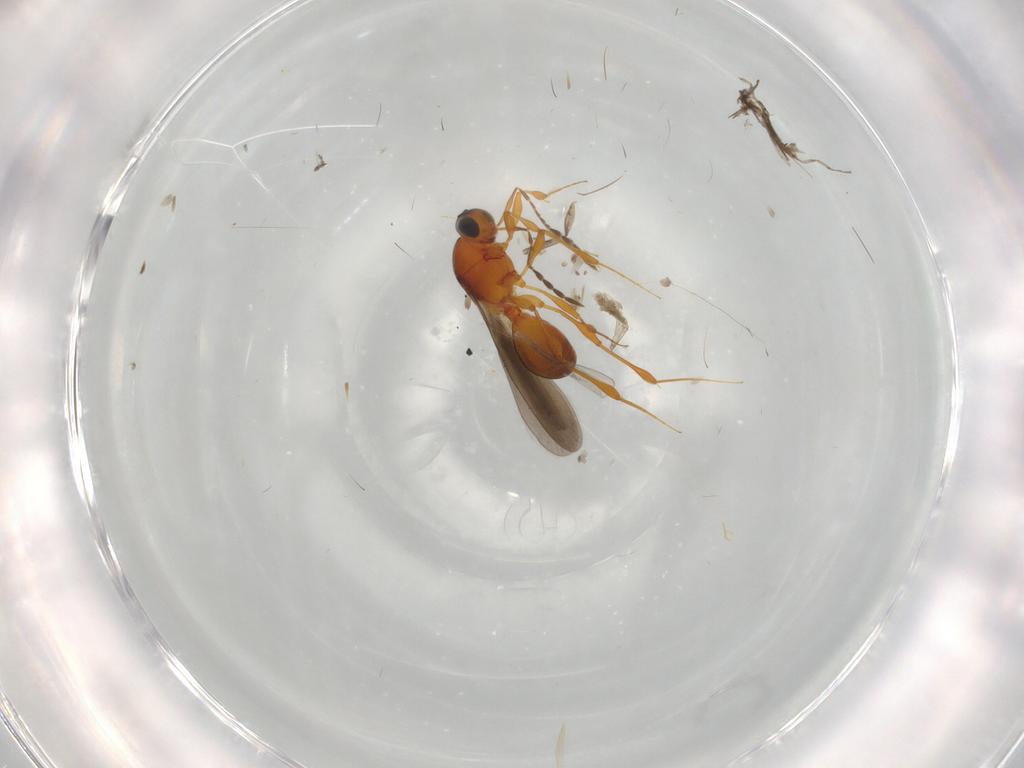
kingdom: Animalia
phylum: Arthropoda
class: Insecta
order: Hymenoptera
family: Platygastridae
